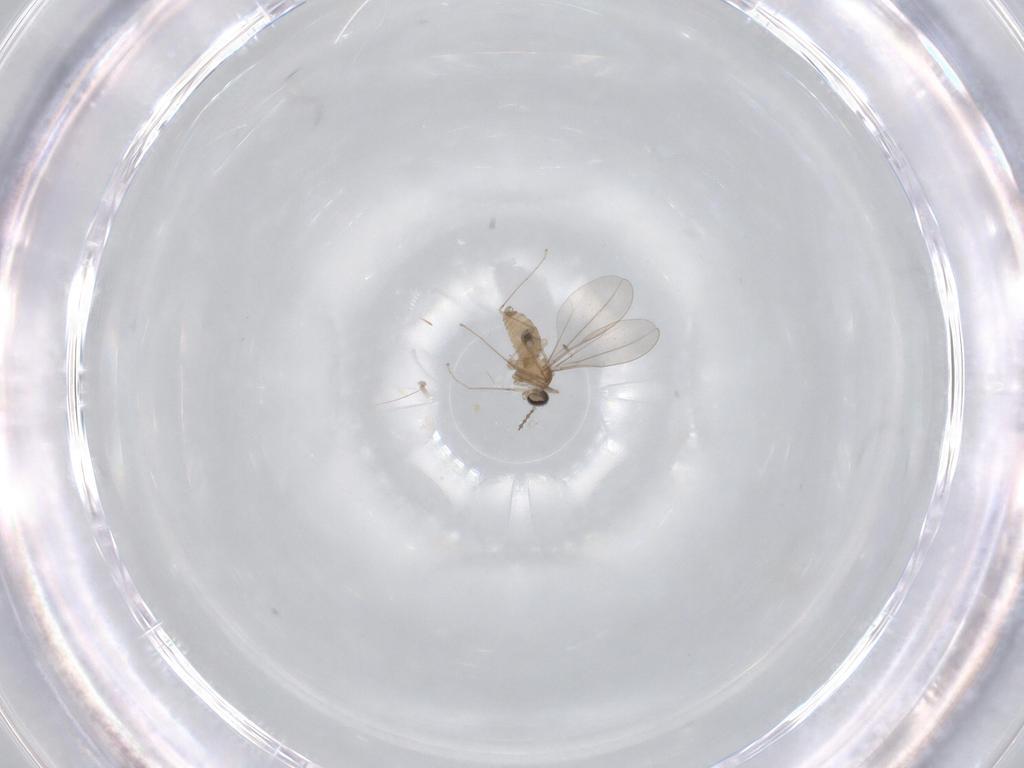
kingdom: Animalia
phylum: Arthropoda
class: Insecta
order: Diptera
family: Cecidomyiidae
